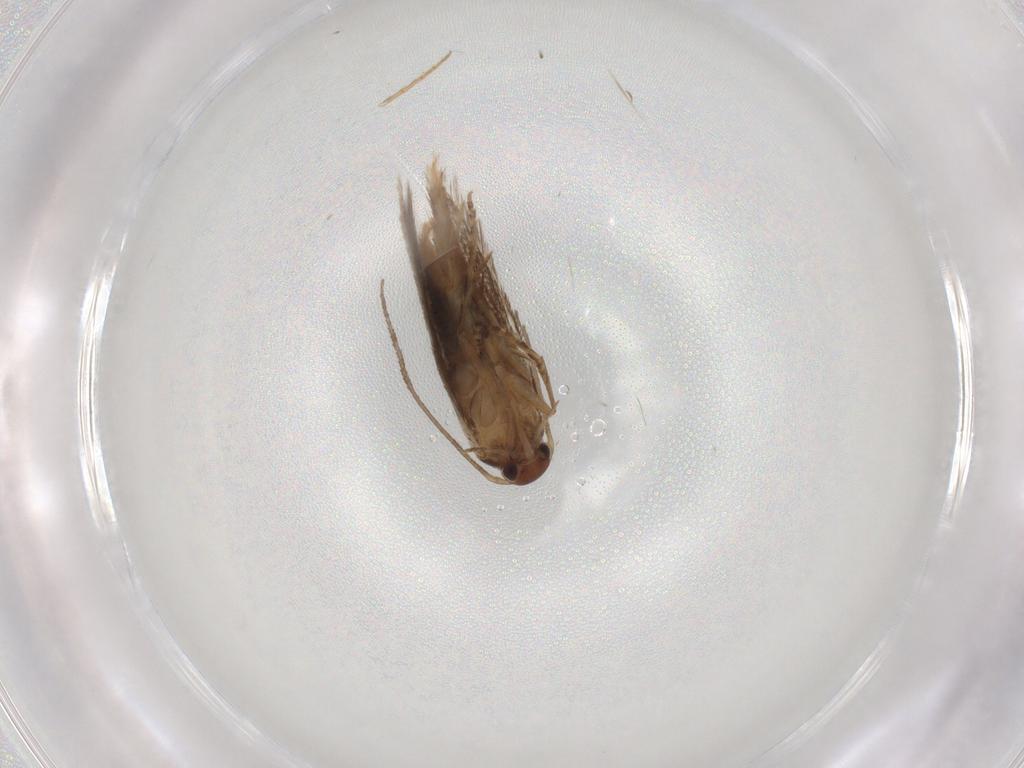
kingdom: Animalia
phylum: Arthropoda
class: Insecta
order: Lepidoptera
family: Elachistidae
